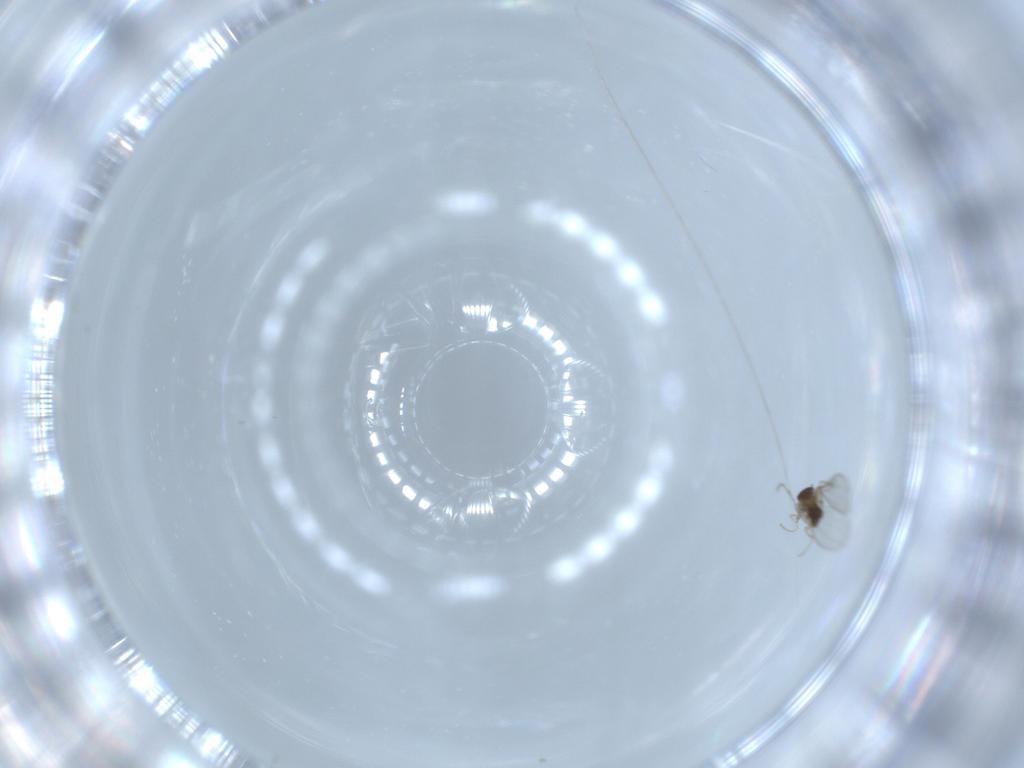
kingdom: Animalia
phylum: Arthropoda
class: Insecta
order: Diptera
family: Cecidomyiidae
